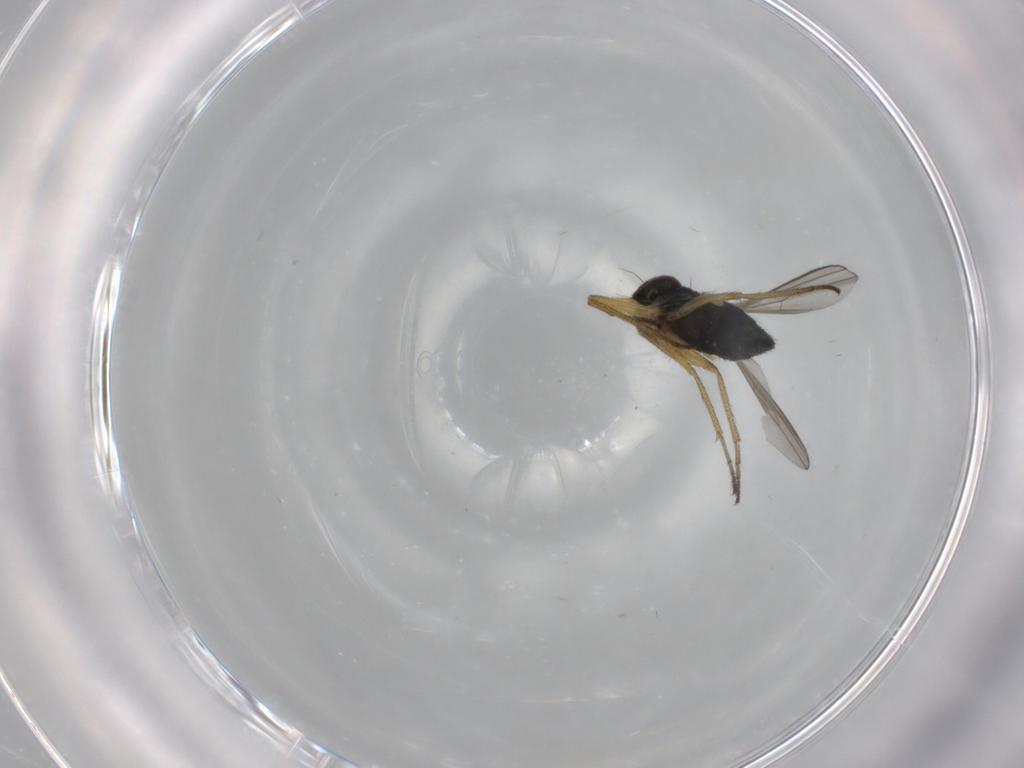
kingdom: Animalia
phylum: Arthropoda
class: Insecta
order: Diptera
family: Dolichopodidae
